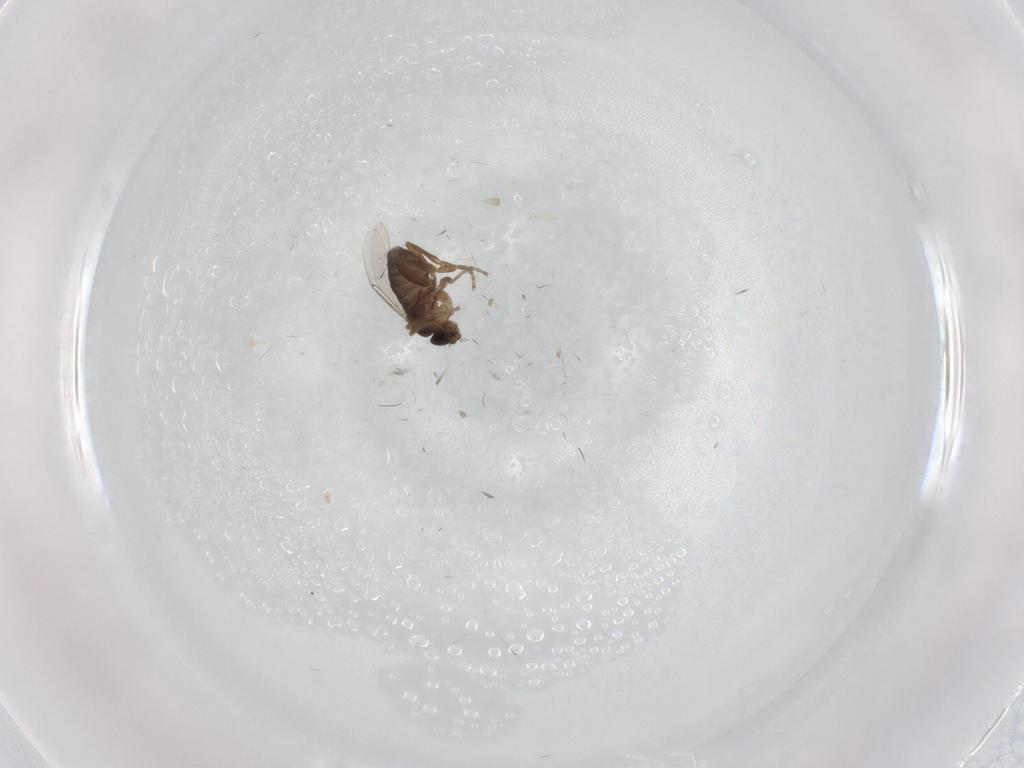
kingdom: Animalia
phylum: Arthropoda
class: Insecta
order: Diptera
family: Phoridae
